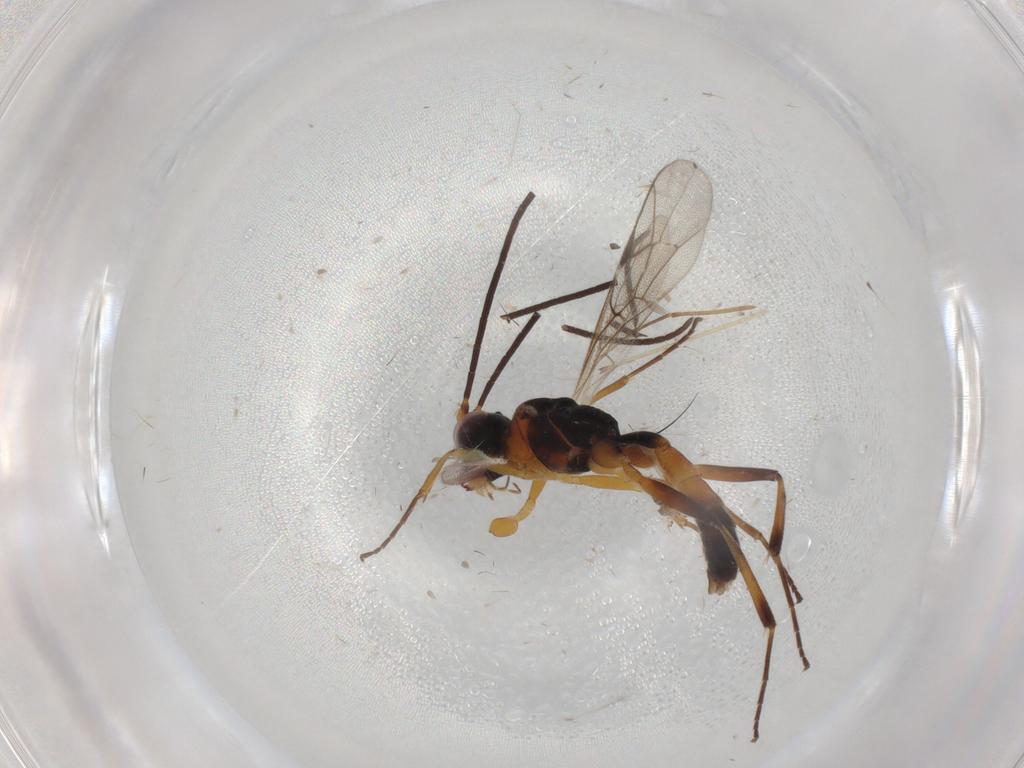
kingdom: Animalia
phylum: Arthropoda
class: Insecta
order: Hymenoptera
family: Ichneumonidae
